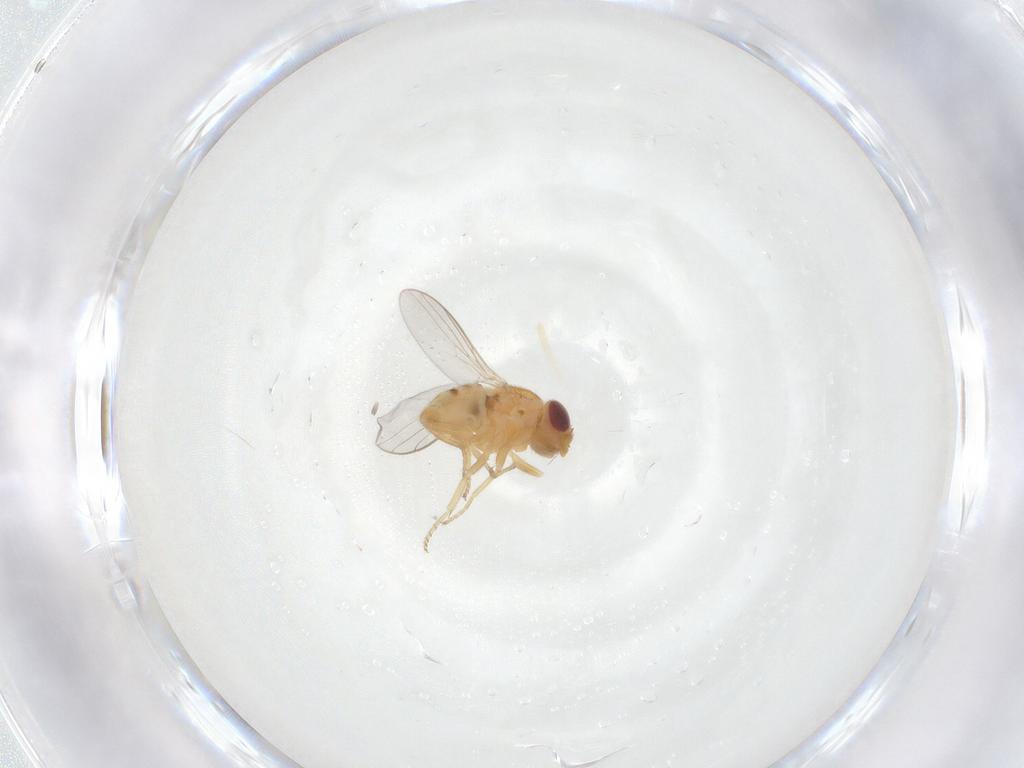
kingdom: Animalia
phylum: Arthropoda
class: Insecta
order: Diptera
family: Chloropidae
